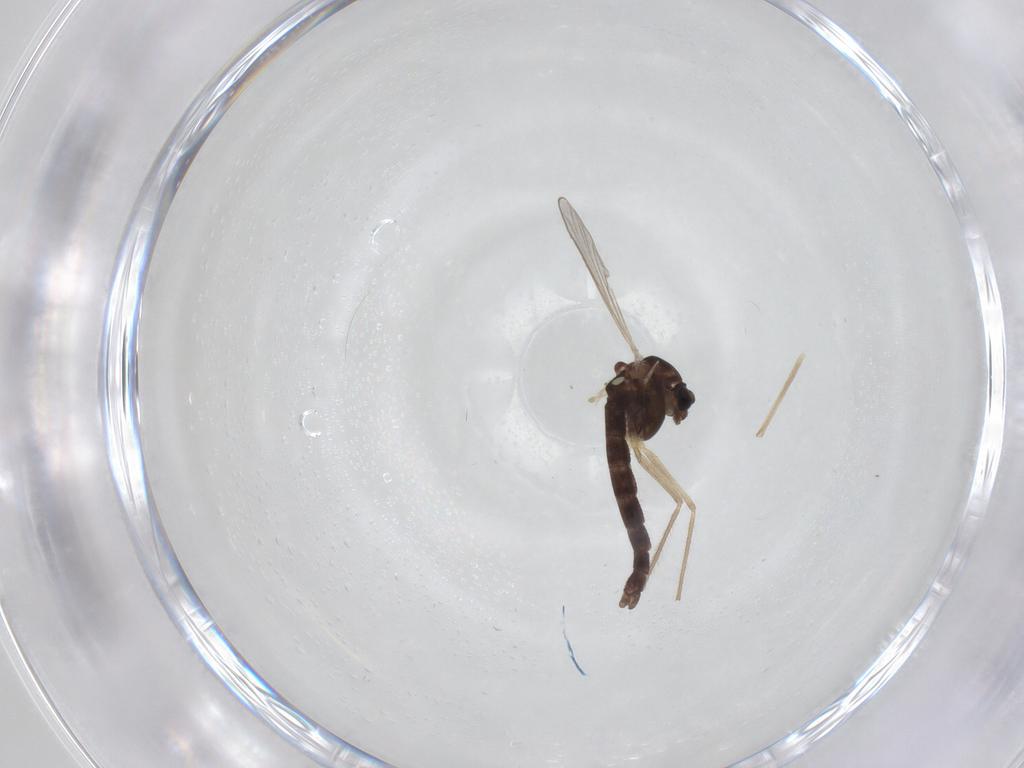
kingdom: Animalia
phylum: Arthropoda
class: Insecta
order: Diptera
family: Chironomidae
